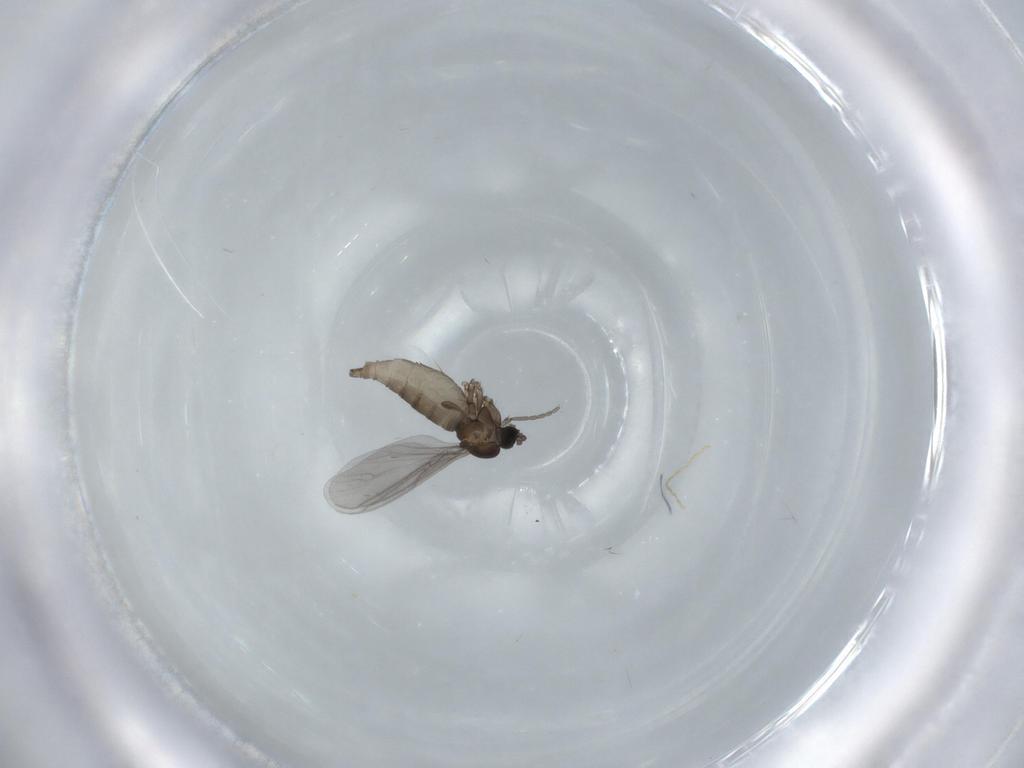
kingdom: Animalia
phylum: Arthropoda
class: Insecta
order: Diptera
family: Sciaridae
